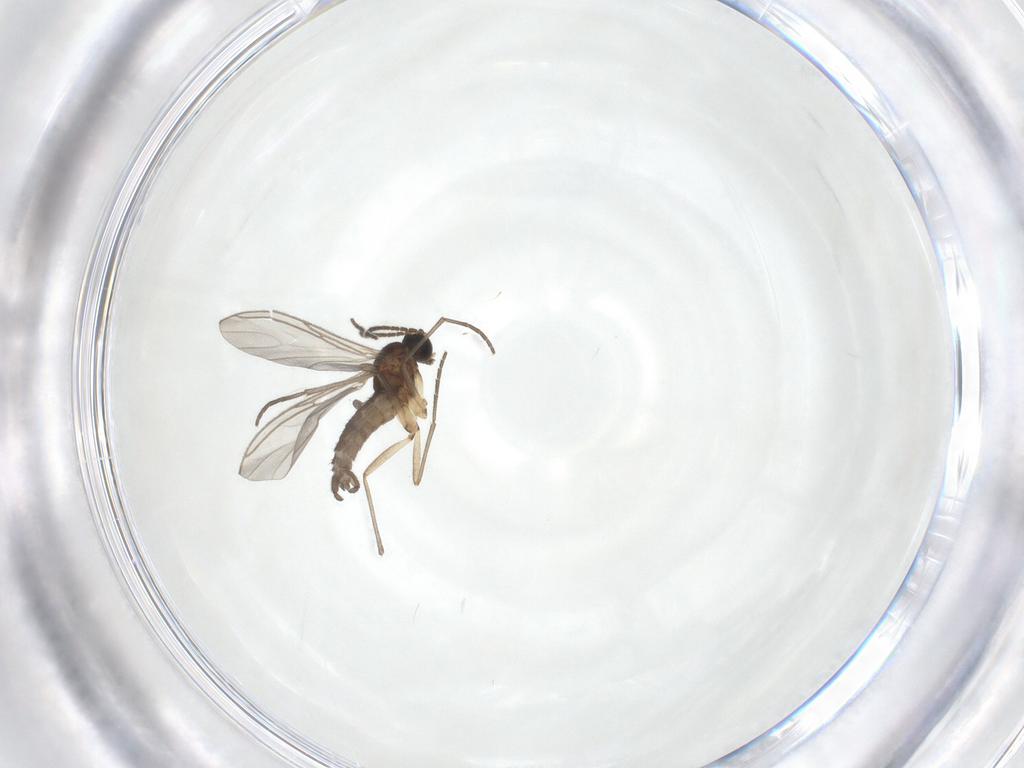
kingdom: Animalia
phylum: Arthropoda
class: Insecta
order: Diptera
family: Sciaridae
